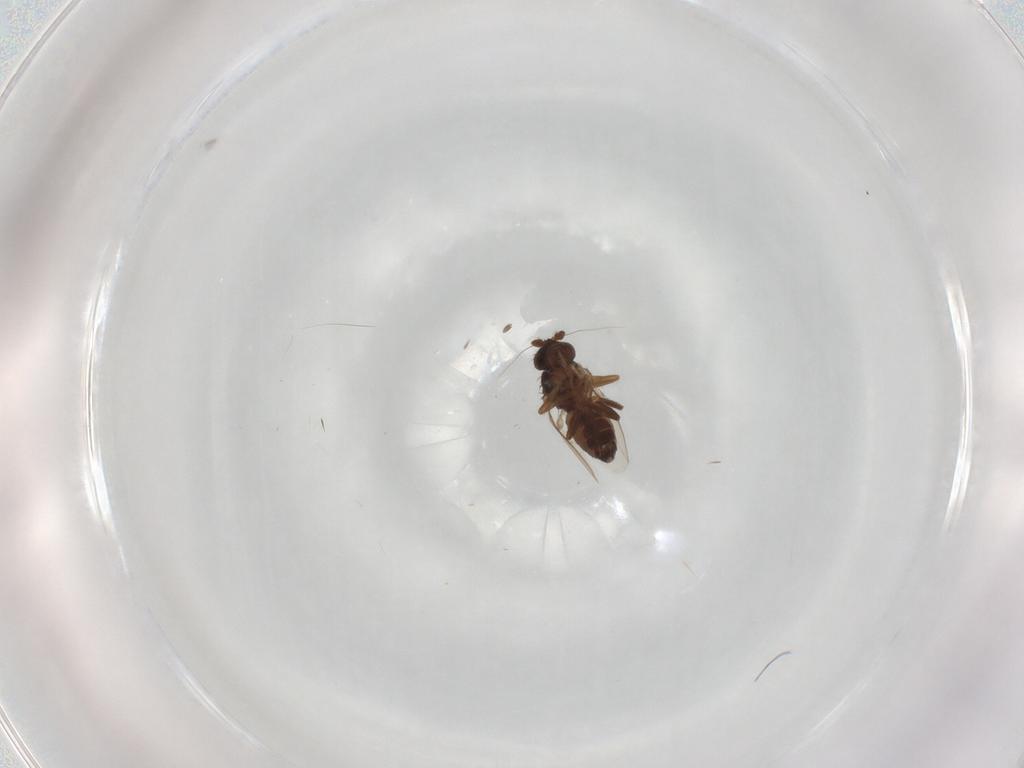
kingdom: Animalia
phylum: Arthropoda
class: Insecta
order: Diptera
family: Sphaeroceridae
